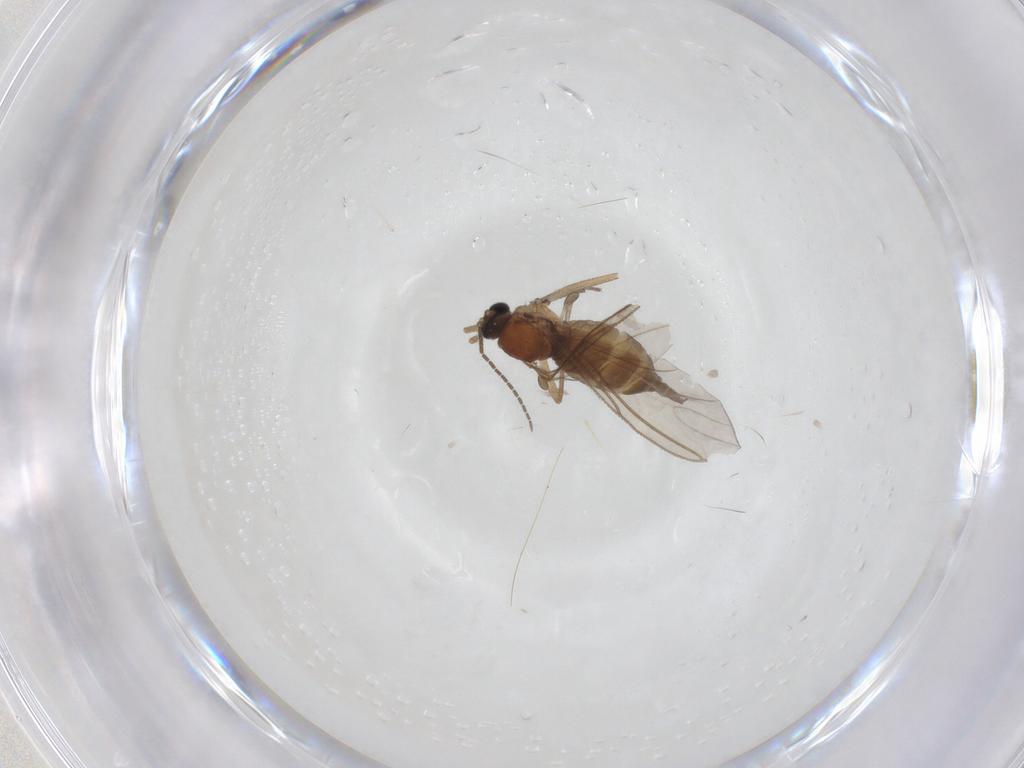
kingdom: Animalia
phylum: Arthropoda
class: Insecta
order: Diptera
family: Sciaridae
